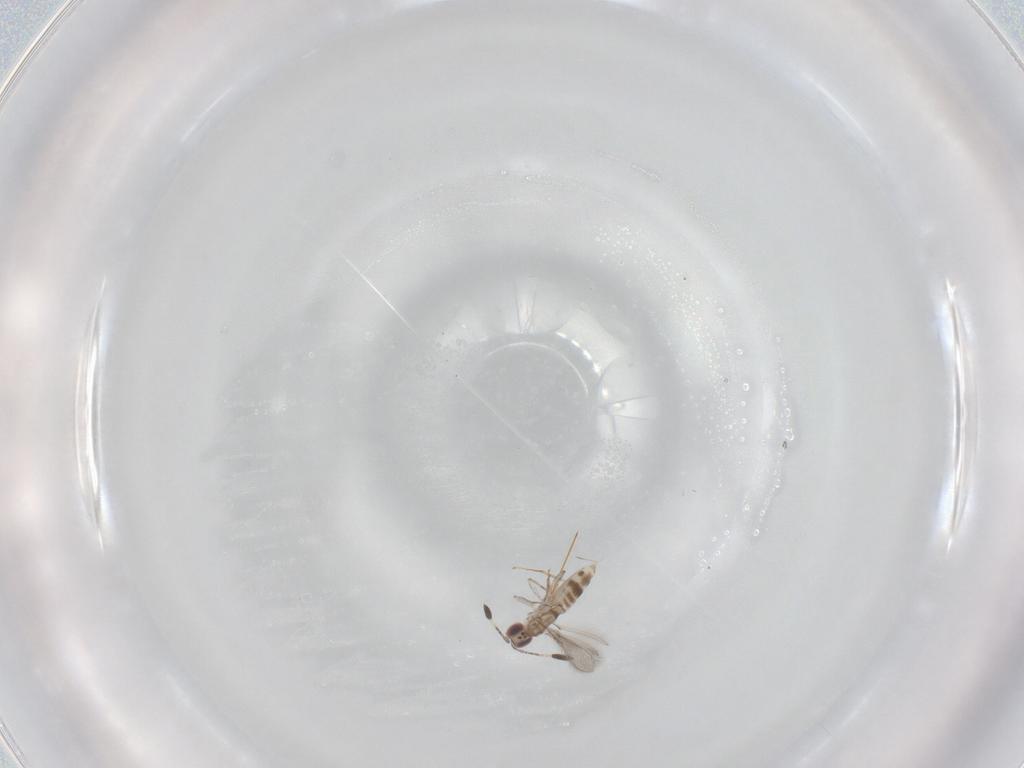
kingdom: Animalia
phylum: Arthropoda
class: Insecta
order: Hymenoptera
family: Mymaridae
